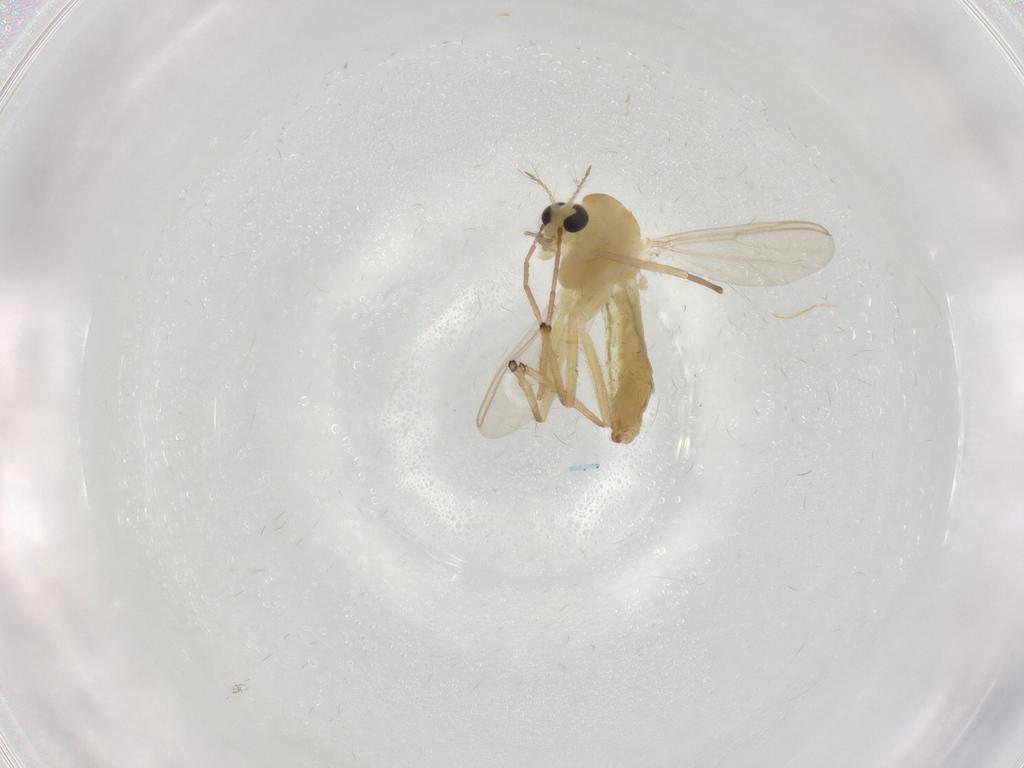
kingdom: Animalia
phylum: Arthropoda
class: Insecta
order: Diptera
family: Chironomidae
